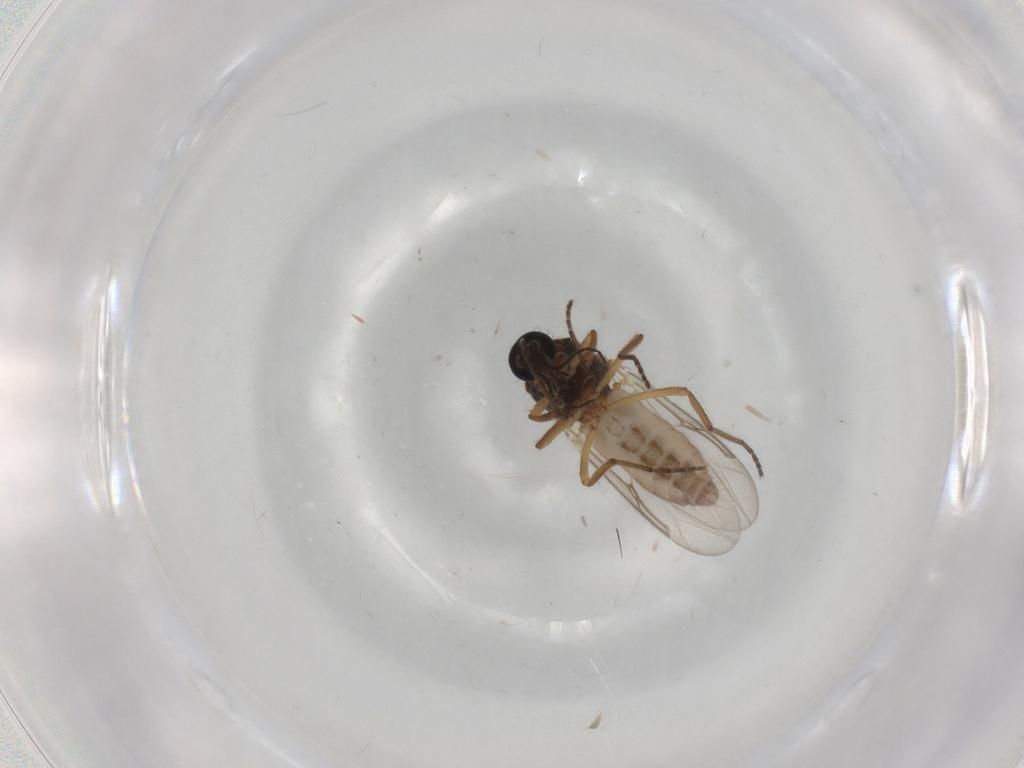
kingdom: Animalia
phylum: Arthropoda
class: Insecta
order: Diptera
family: Ceratopogonidae
